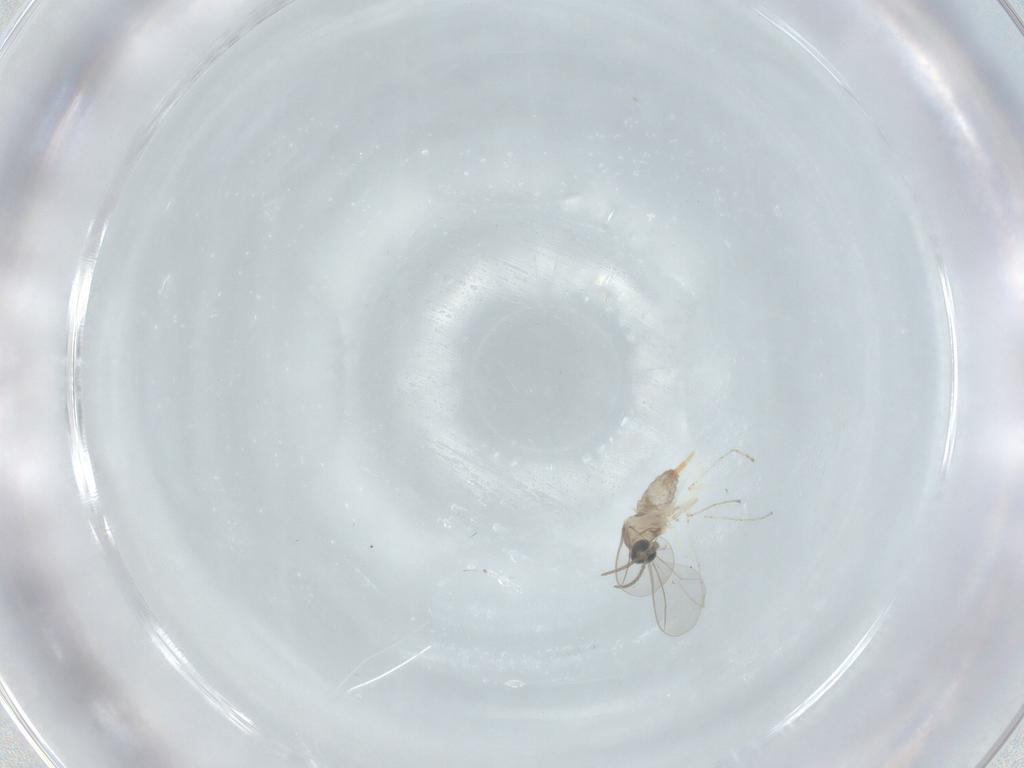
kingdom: Animalia
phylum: Arthropoda
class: Insecta
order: Diptera
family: Cecidomyiidae
